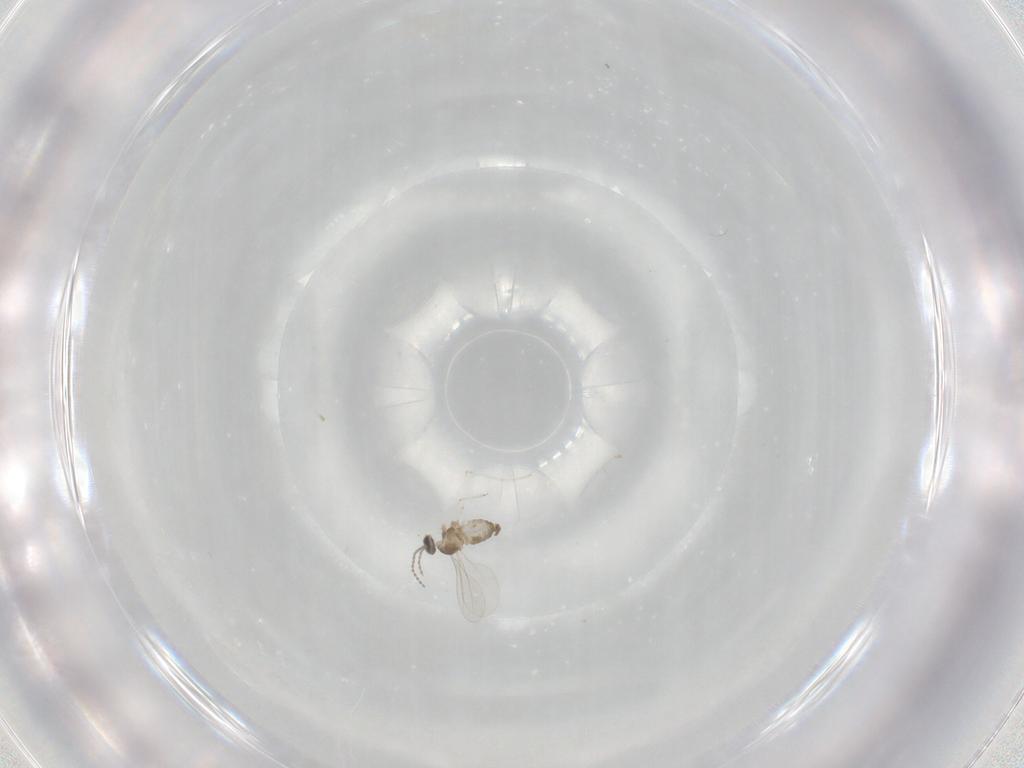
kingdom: Animalia
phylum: Arthropoda
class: Insecta
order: Diptera
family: Cecidomyiidae
